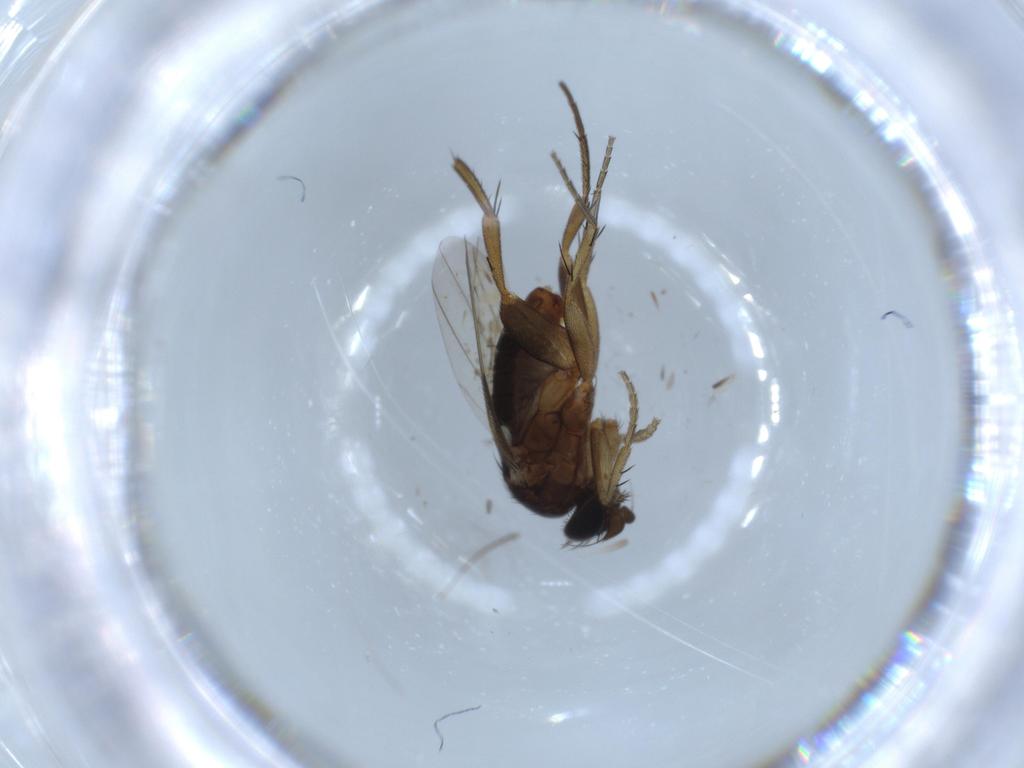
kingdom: Animalia
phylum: Arthropoda
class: Insecta
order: Diptera
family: Phoridae
